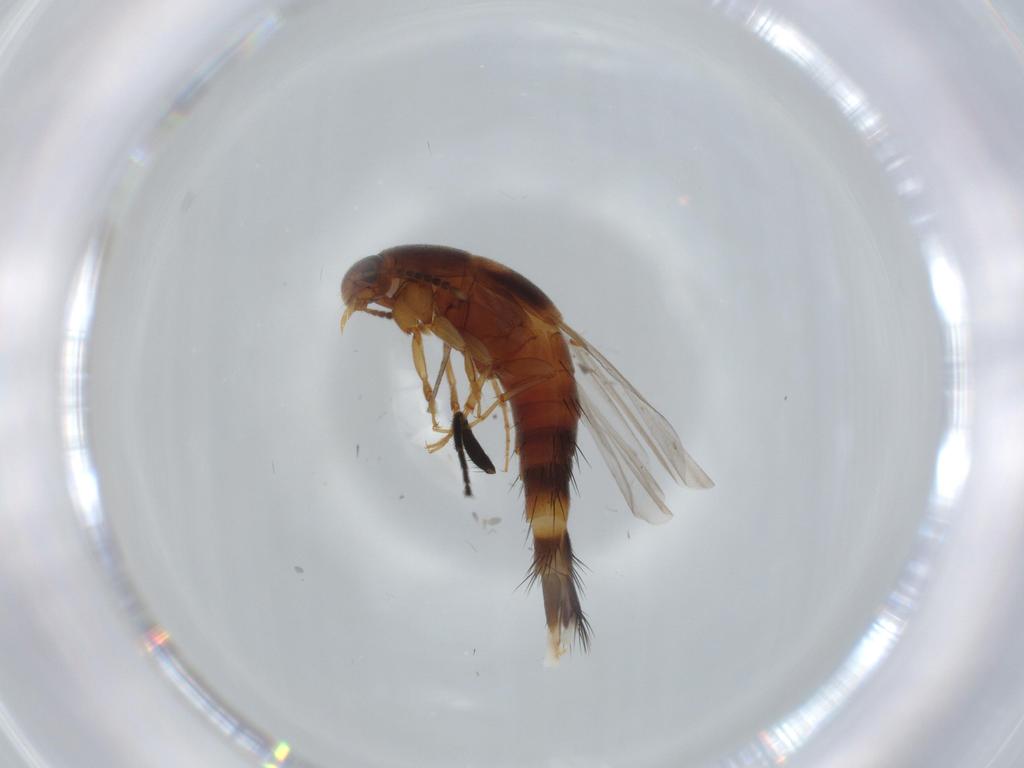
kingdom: Animalia
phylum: Arthropoda
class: Insecta
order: Coleoptera
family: Staphylinidae
